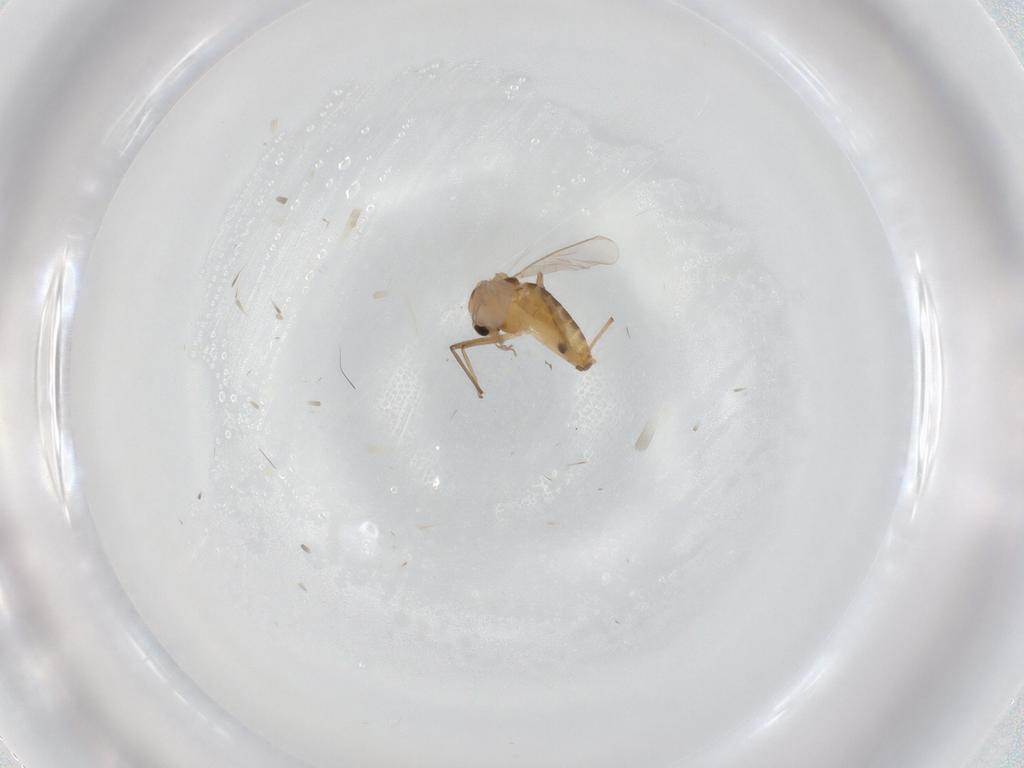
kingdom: Animalia
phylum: Arthropoda
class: Insecta
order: Diptera
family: Chironomidae
